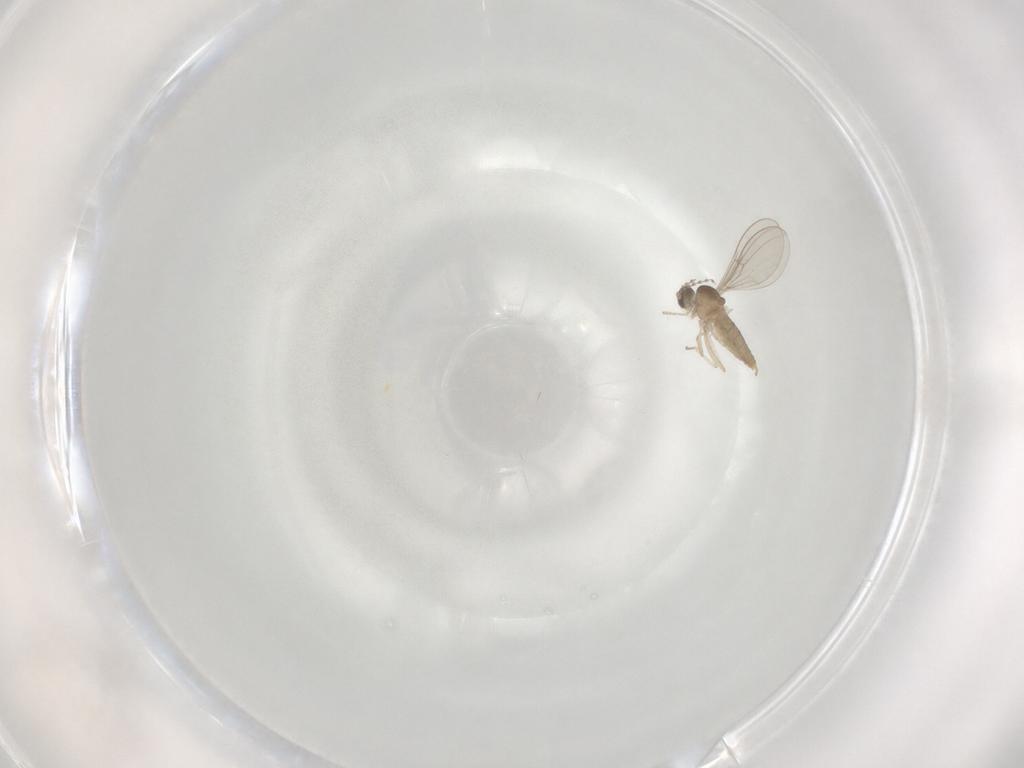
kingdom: Animalia
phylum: Arthropoda
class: Insecta
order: Diptera
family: Cecidomyiidae
